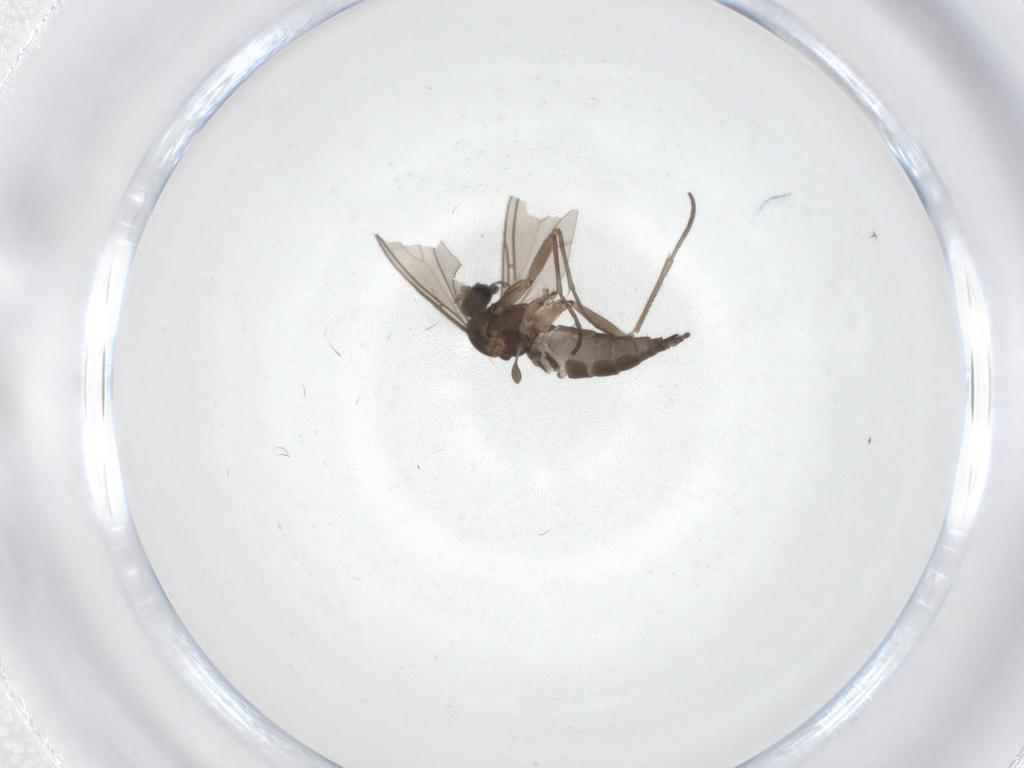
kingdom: Animalia
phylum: Arthropoda
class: Insecta
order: Diptera
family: Sciaridae
